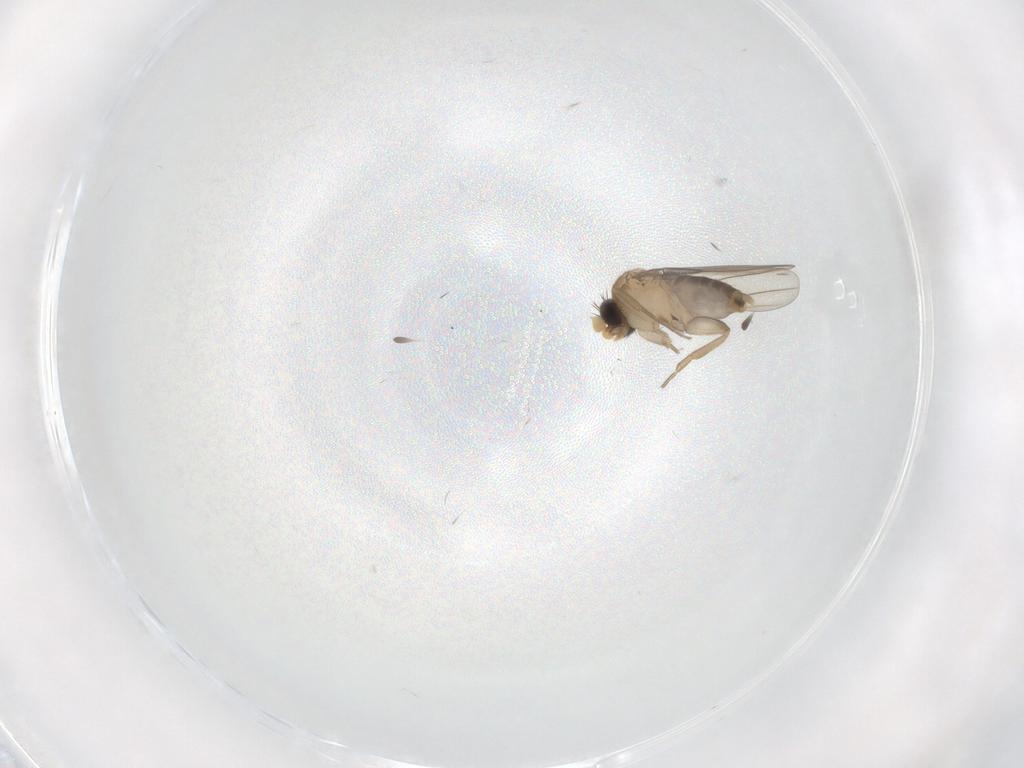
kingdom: Animalia
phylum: Arthropoda
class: Insecta
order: Diptera
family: Phoridae
